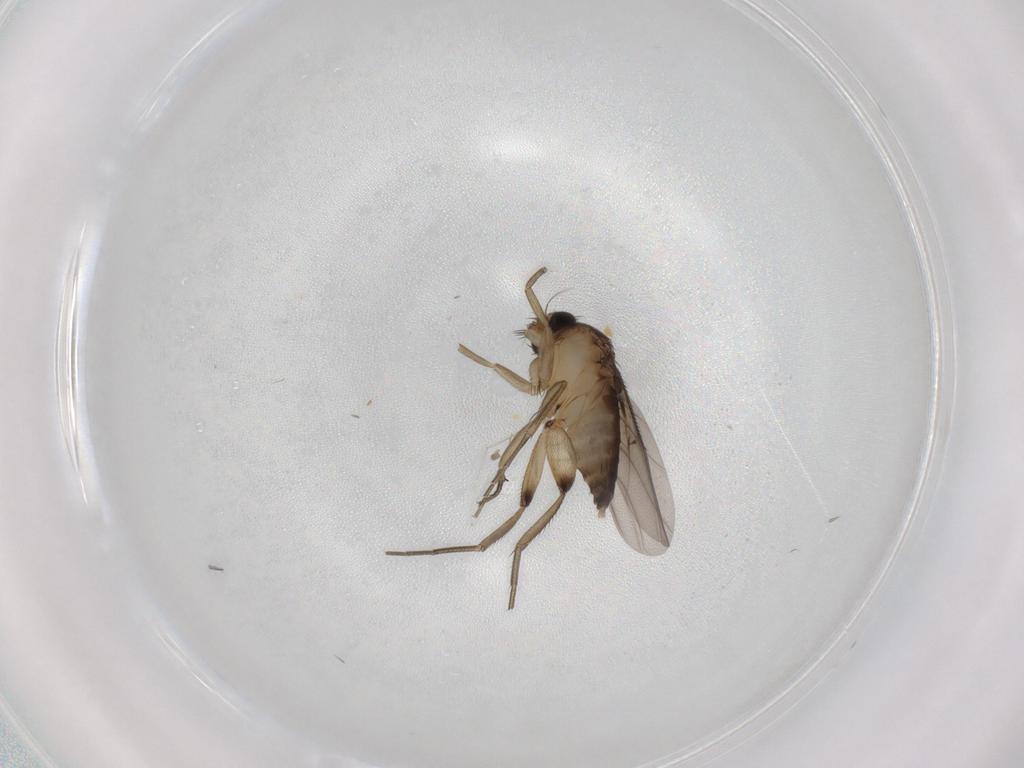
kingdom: Animalia
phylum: Arthropoda
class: Insecta
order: Diptera
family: Phoridae
